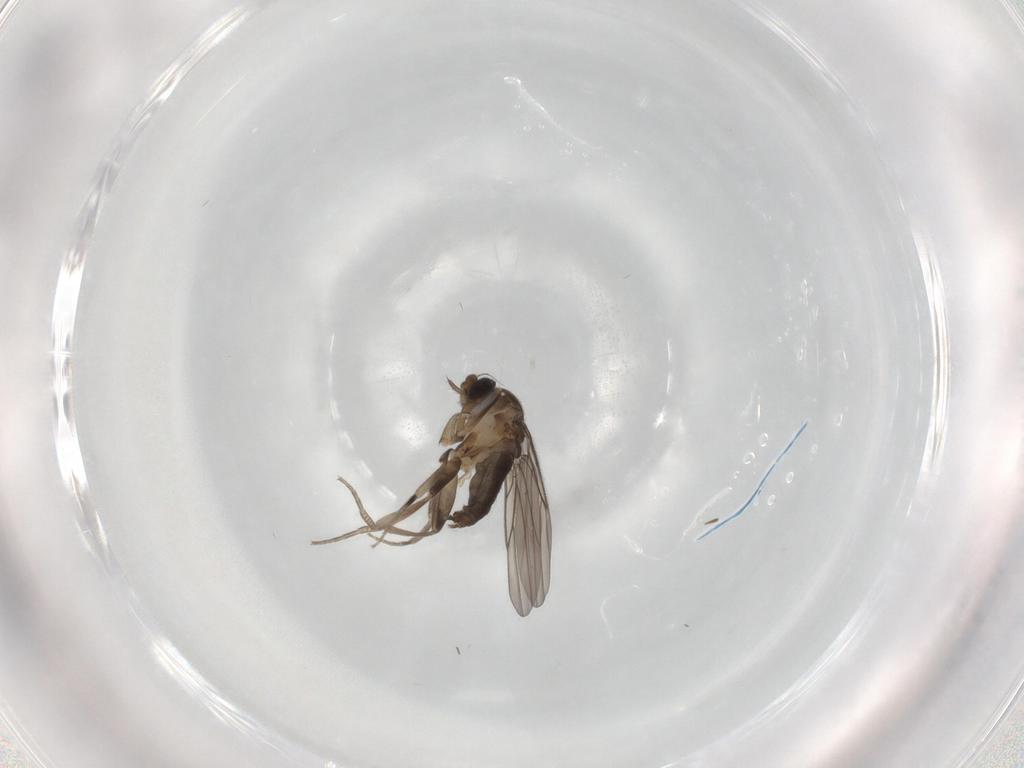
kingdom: Animalia
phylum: Arthropoda
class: Insecta
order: Diptera
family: Phoridae
